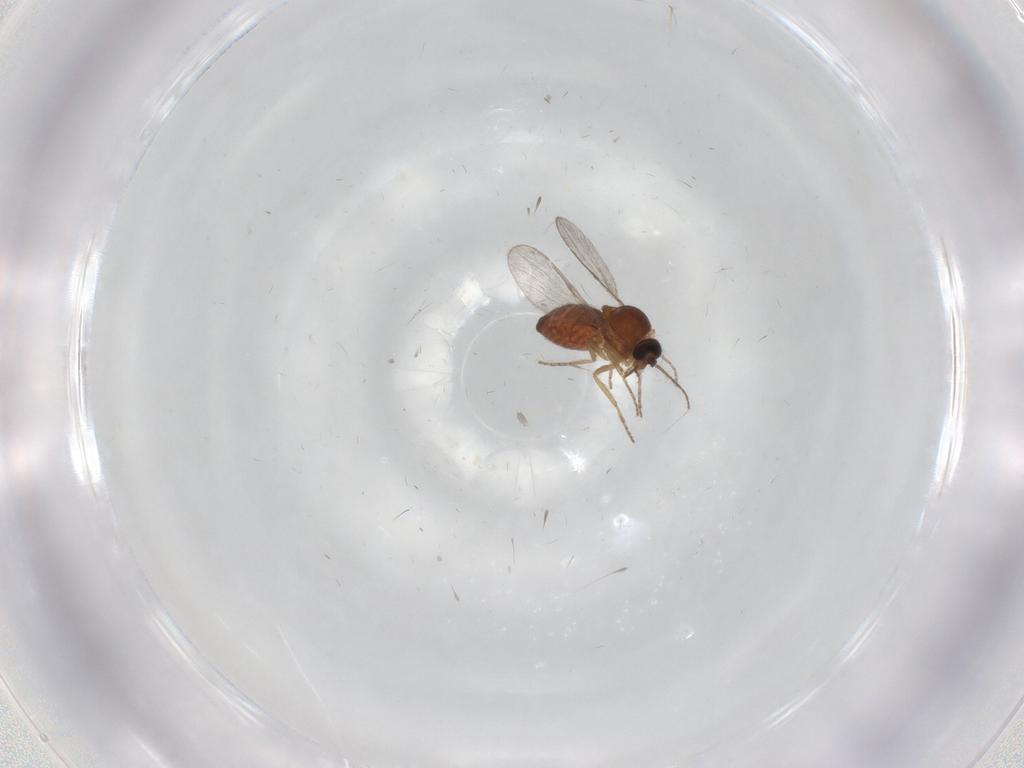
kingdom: Animalia
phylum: Arthropoda
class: Insecta
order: Diptera
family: Ceratopogonidae
